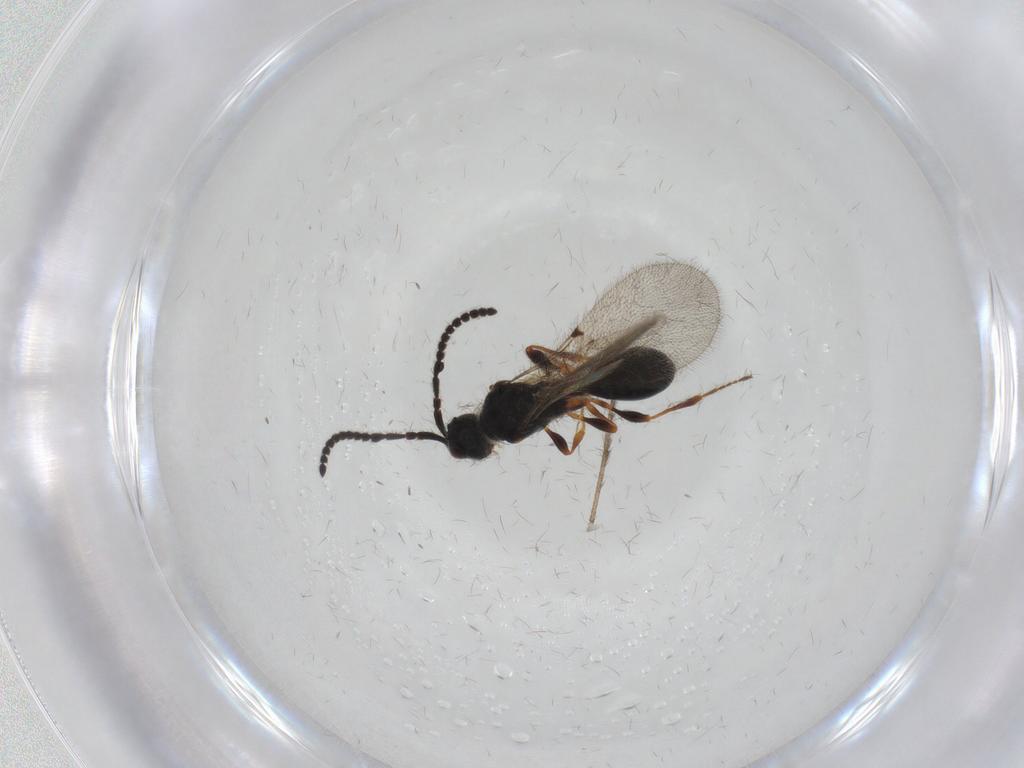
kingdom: Animalia
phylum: Arthropoda
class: Insecta
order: Hymenoptera
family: Diapriidae
